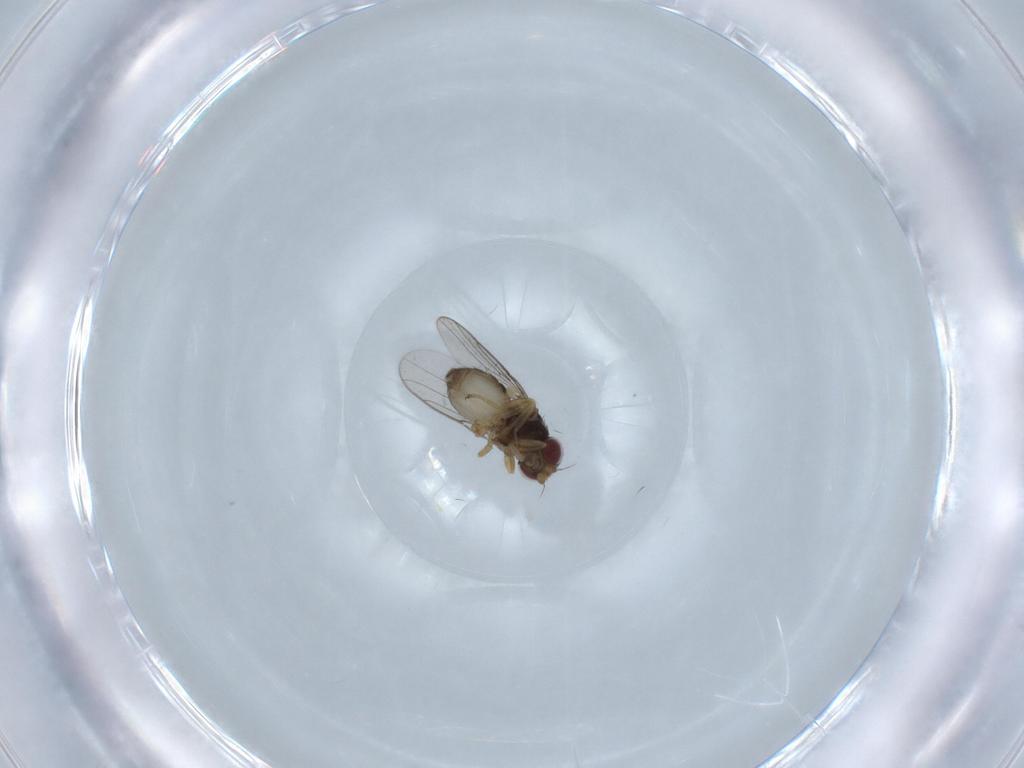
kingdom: Animalia
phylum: Arthropoda
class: Insecta
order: Diptera
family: Chloropidae
